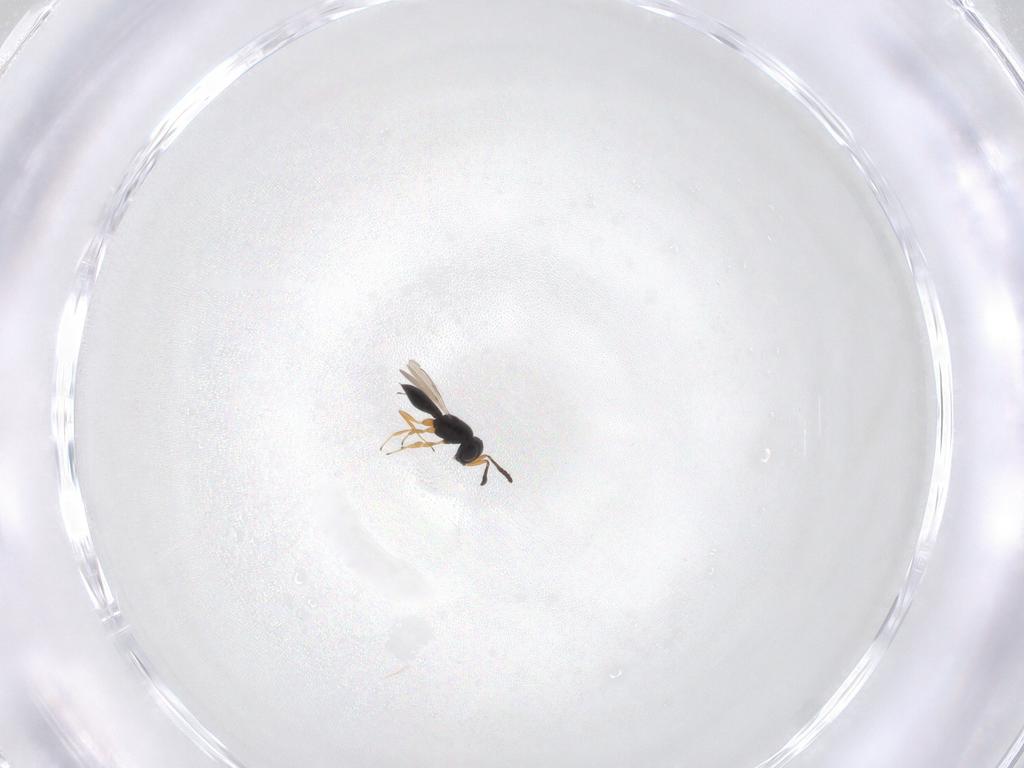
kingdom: Animalia
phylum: Arthropoda
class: Insecta
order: Hymenoptera
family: Scelionidae
